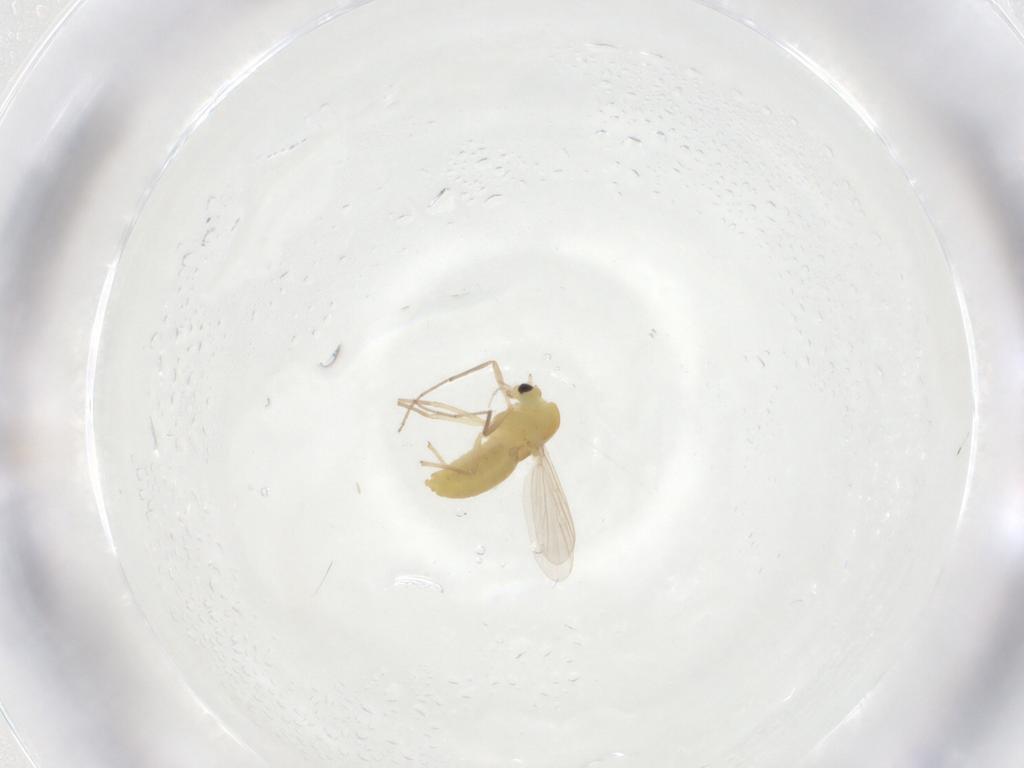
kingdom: Animalia
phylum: Arthropoda
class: Insecta
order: Diptera
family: Chironomidae
